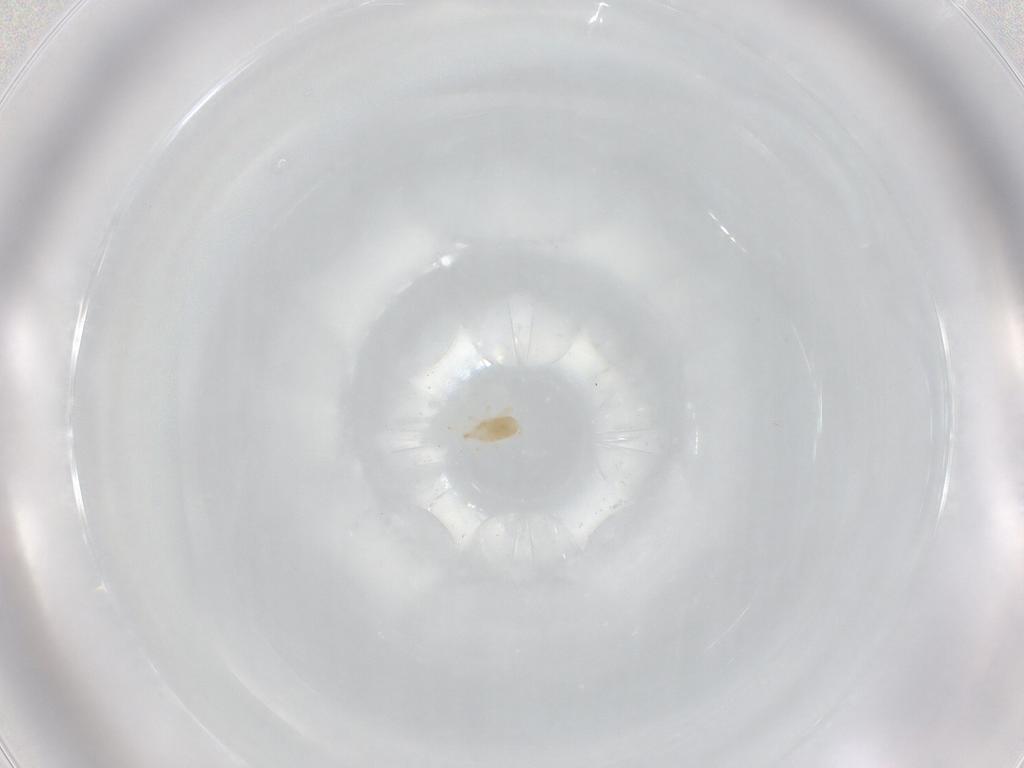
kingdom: Animalia
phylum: Arthropoda
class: Arachnida
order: Mesostigmata
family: Laelapidae
